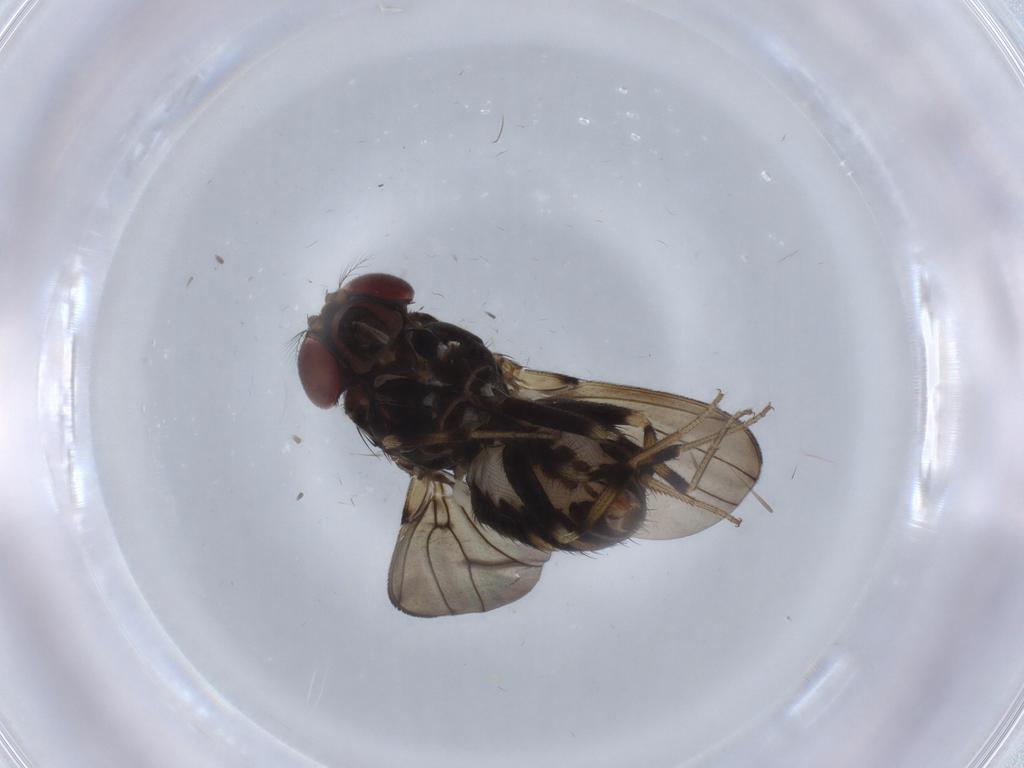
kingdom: Animalia
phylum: Arthropoda
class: Insecta
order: Diptera
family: Drosophilidae
